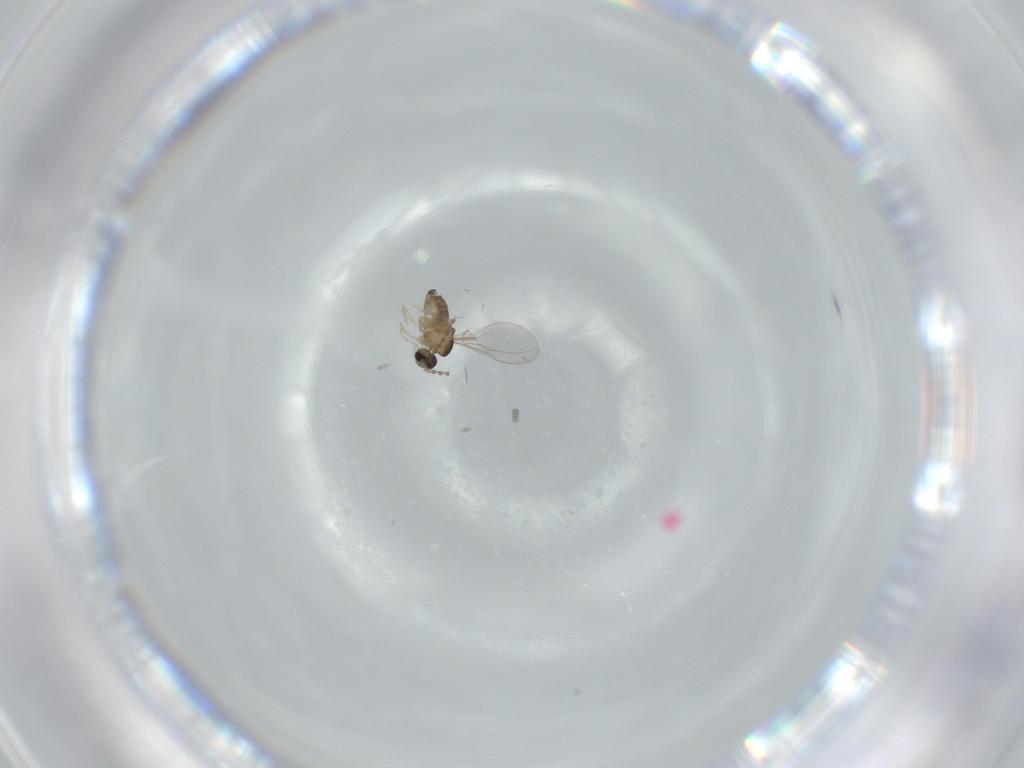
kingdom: Animalia
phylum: Arthropoda
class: Insecta
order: Diptera
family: Cecidomyiidae
